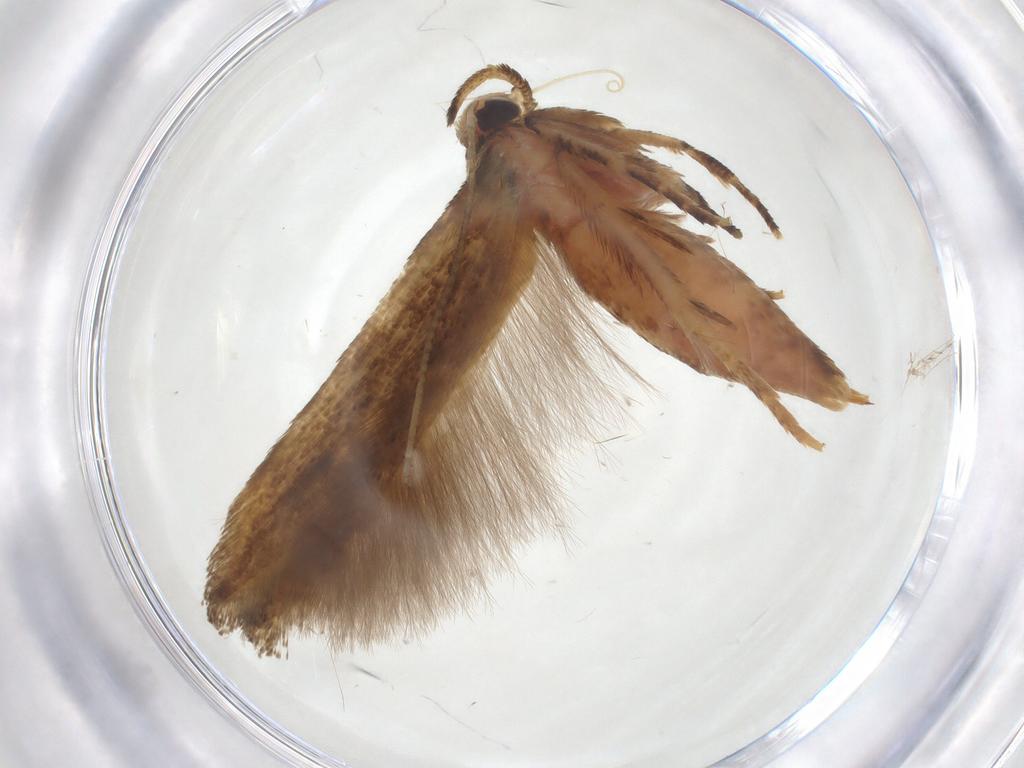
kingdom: Animalia
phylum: Arthropoda
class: Insecta
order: Lepidoptera
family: Cosmopterigidae
